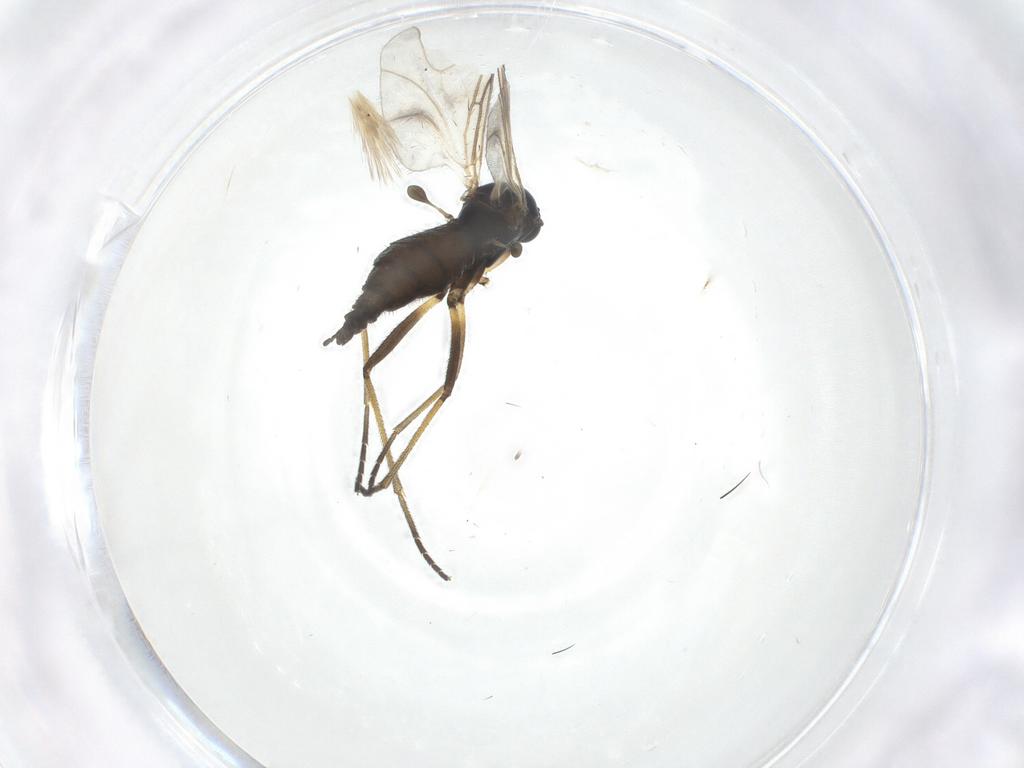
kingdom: Animalia
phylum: Arthropoda
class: Insecta
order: Diptera
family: Sciaridae
